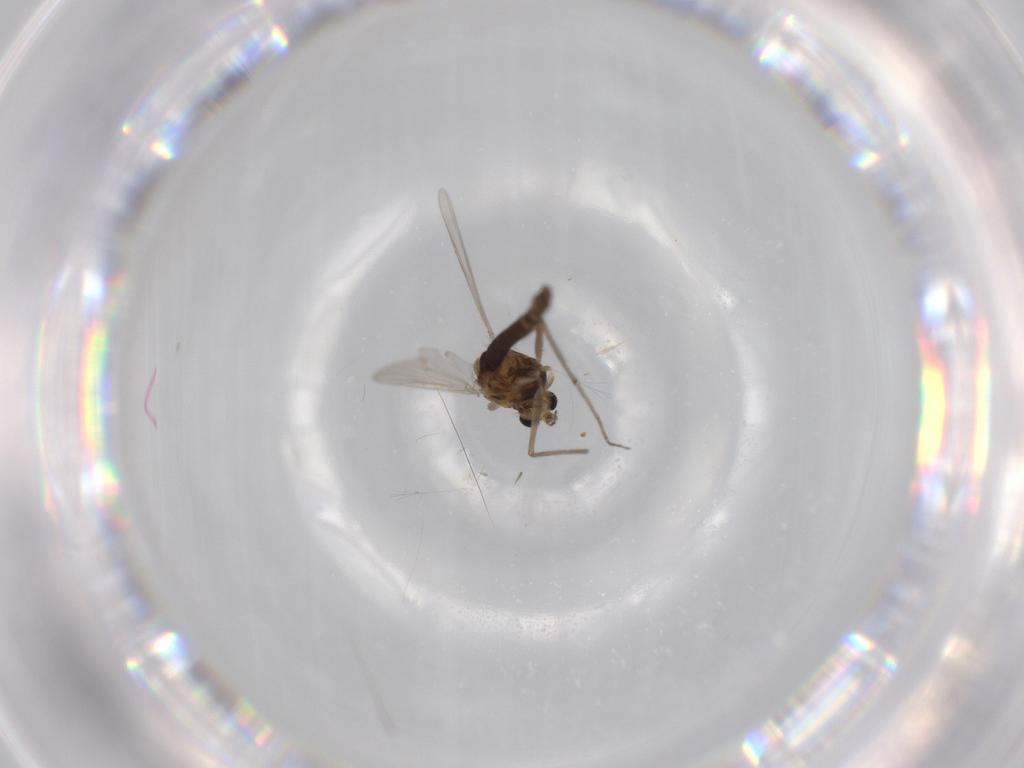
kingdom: Animalia
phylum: Arthropoda
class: Insecta
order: Diptera
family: Chironomidae
